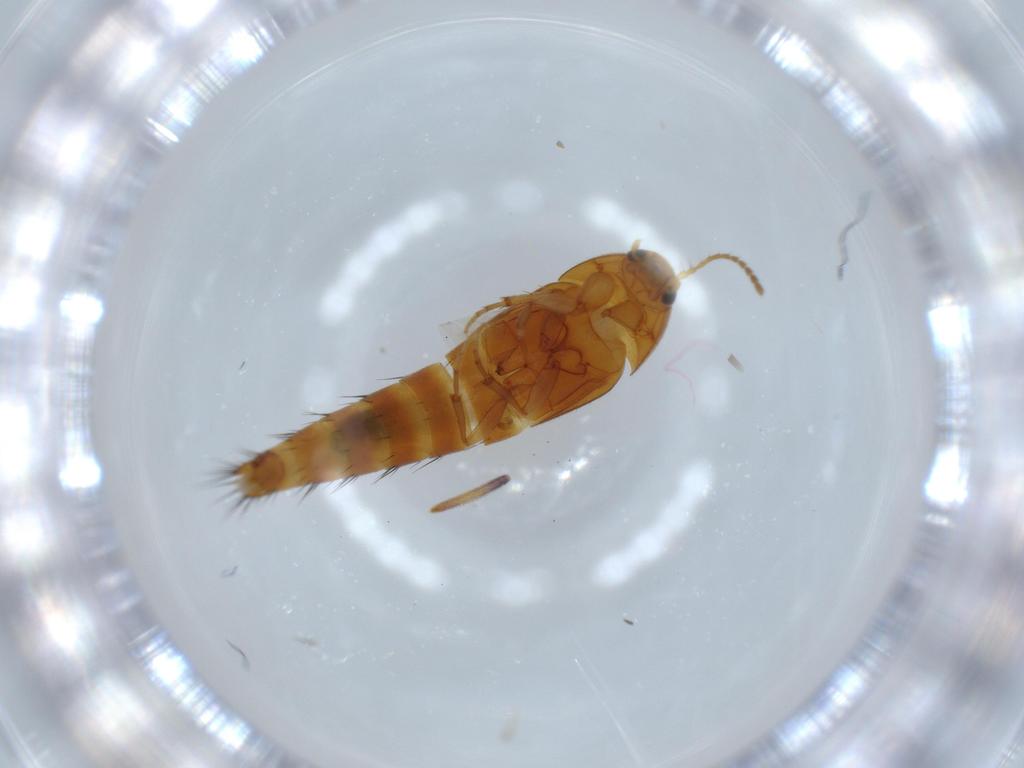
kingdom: Animalia
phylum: Arthropoda
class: Insecta
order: Coleoptera
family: Staphylinidae
